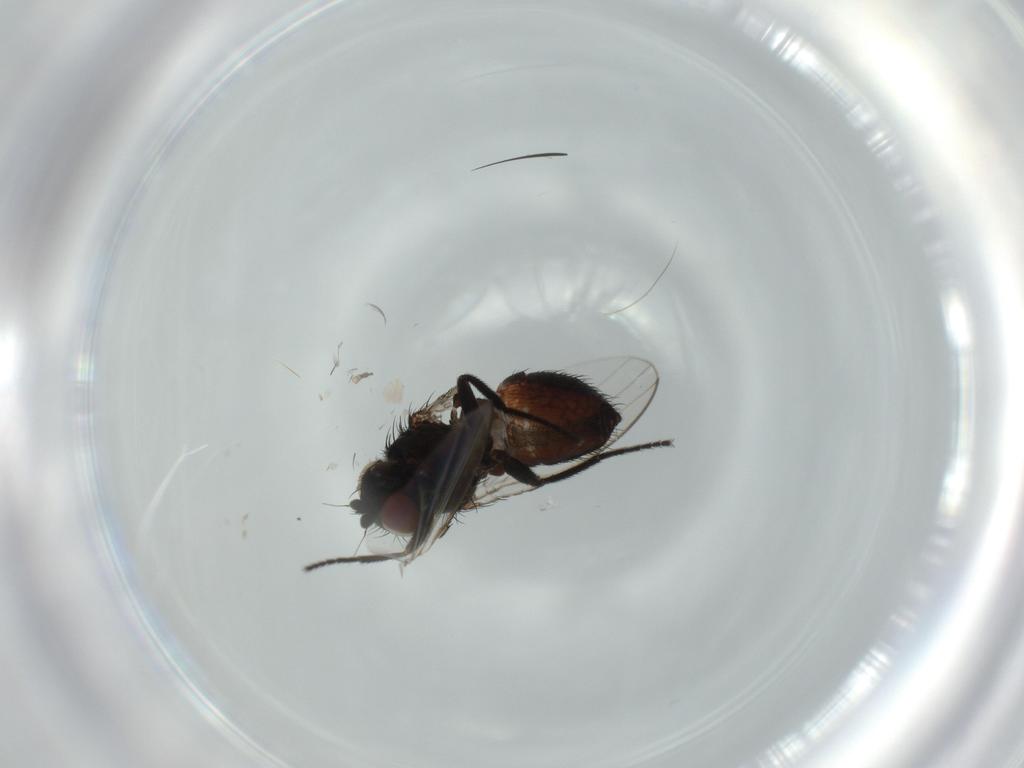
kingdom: Animalia
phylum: Arthropoda
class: Insecta
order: Diptera
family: Milichiidae
